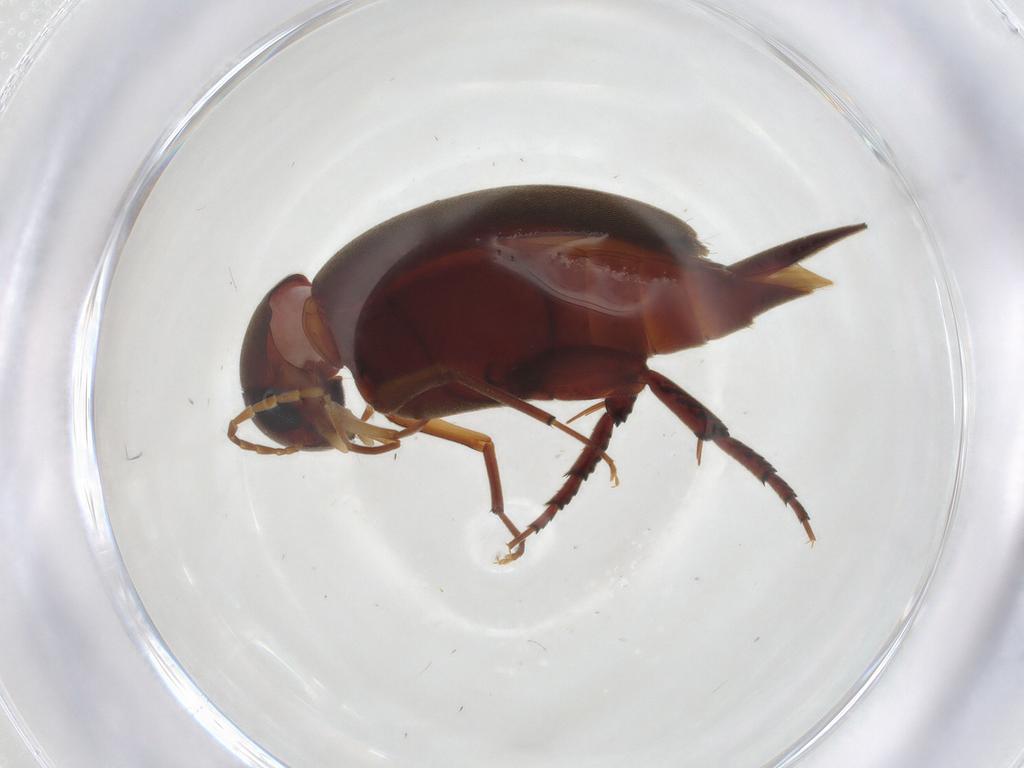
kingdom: Animalia
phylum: Arthropoda
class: Insecta
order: Coleoptera
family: Mordellidae
